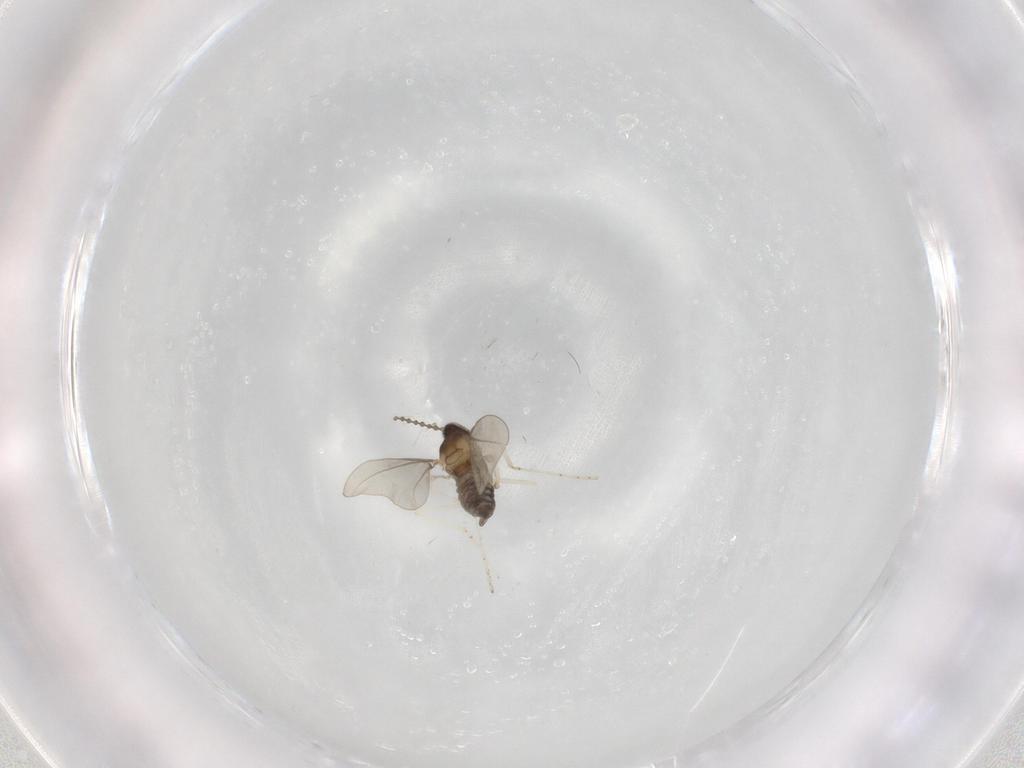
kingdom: Animalia
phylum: Arthropoda
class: Insecta
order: Diptera
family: Cecidomyiidae
